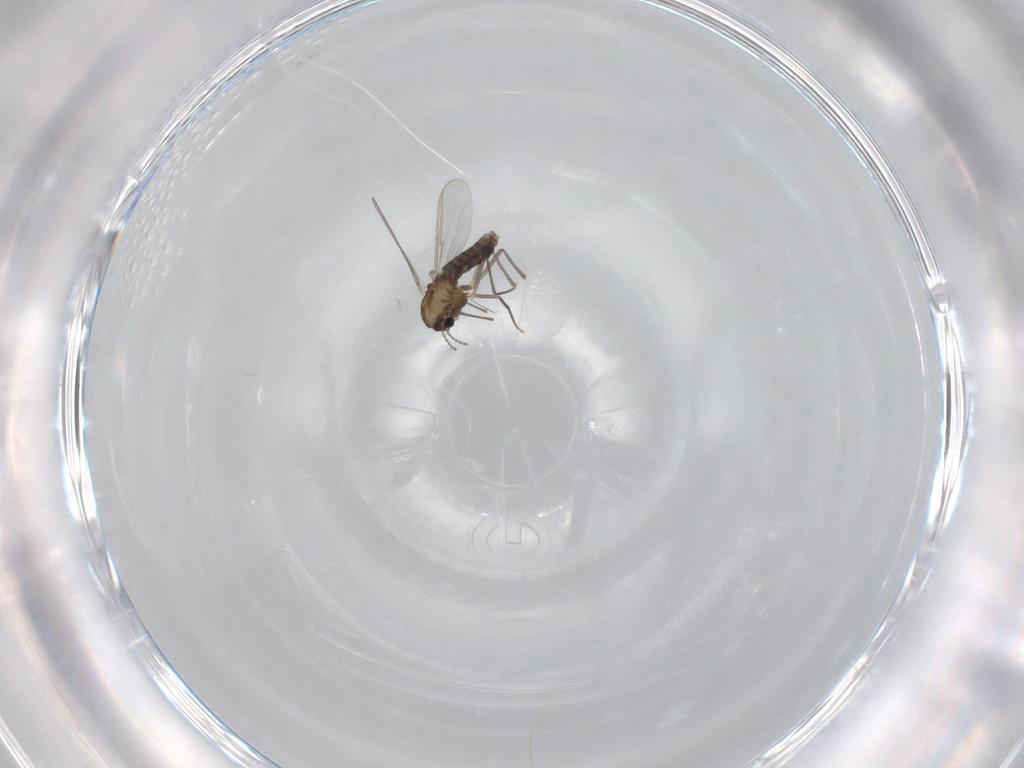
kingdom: Animalia
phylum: Arthropoda
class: Insecta
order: Diptera
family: Chironomidae
